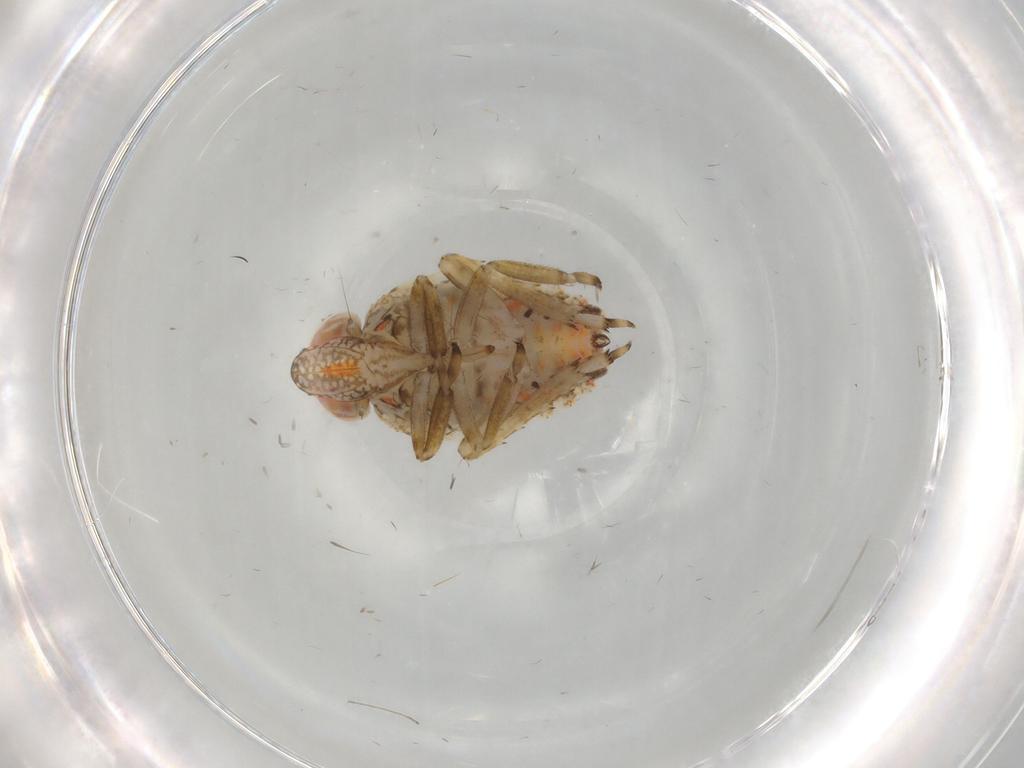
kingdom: Animalia
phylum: Arthropoda
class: Insecta
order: Hemiptera
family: Issidae
